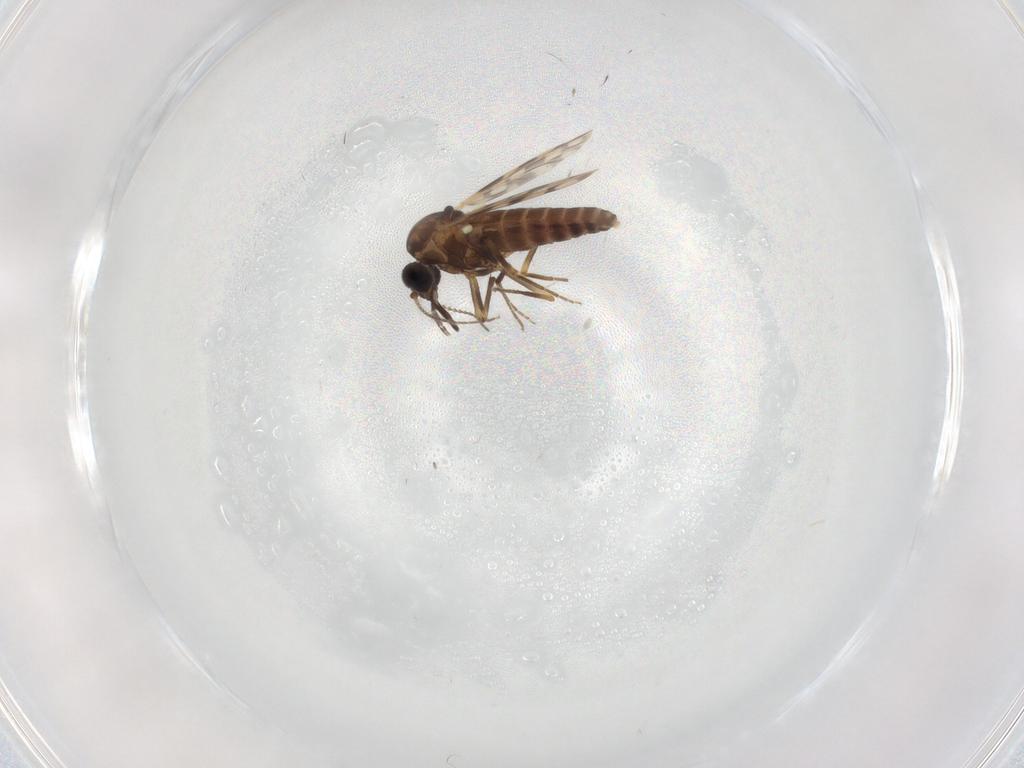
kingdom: Animalia
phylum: Arthropoda
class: Insecta
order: Diptera
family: Ceratopogonidae
